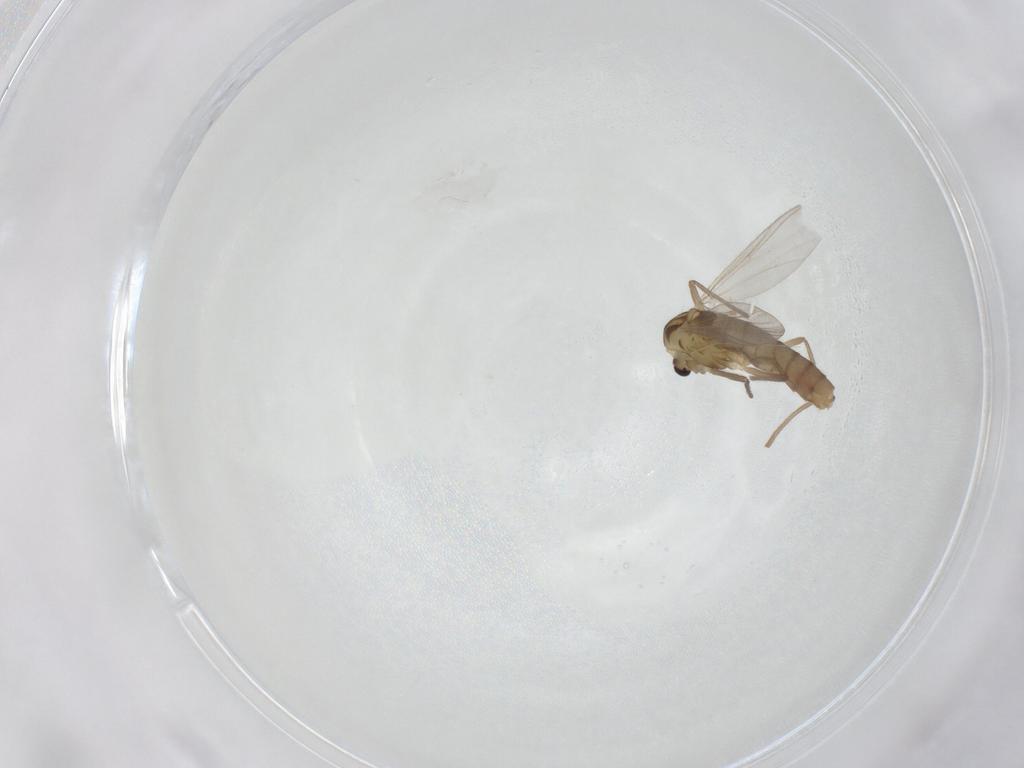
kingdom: Animalia
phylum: Arthropoda
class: Insecta
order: Diptera
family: Chironomidae
